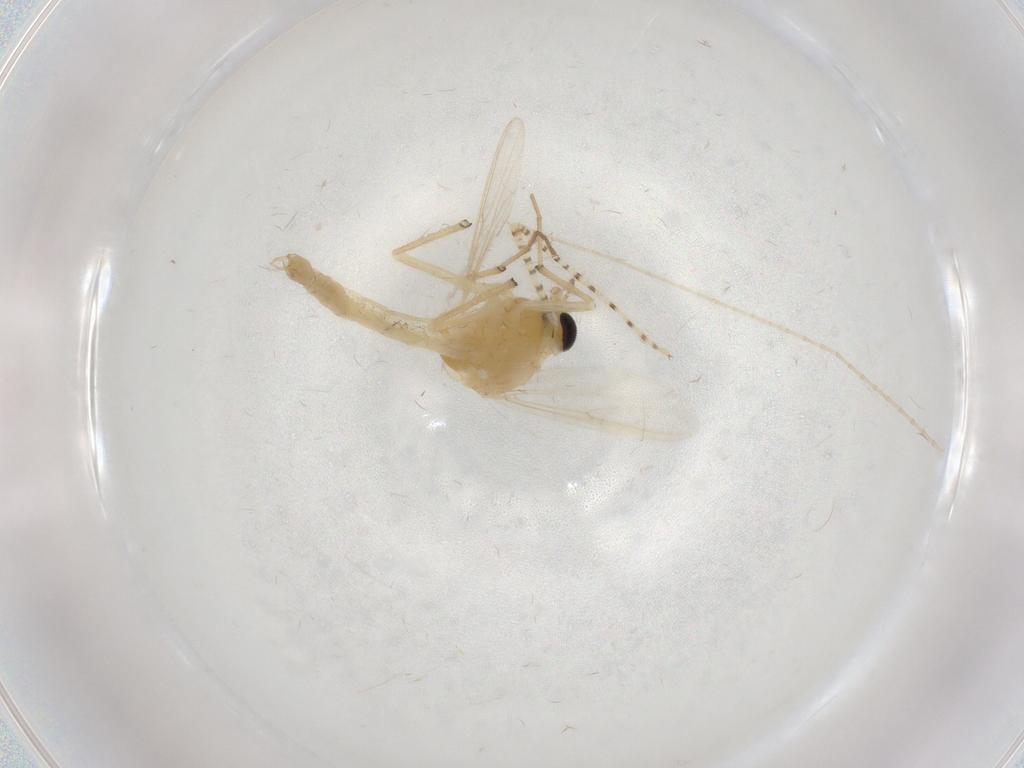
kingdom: Animalia
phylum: Arthropoda
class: Insecta
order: Diptera
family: Chironomidae
